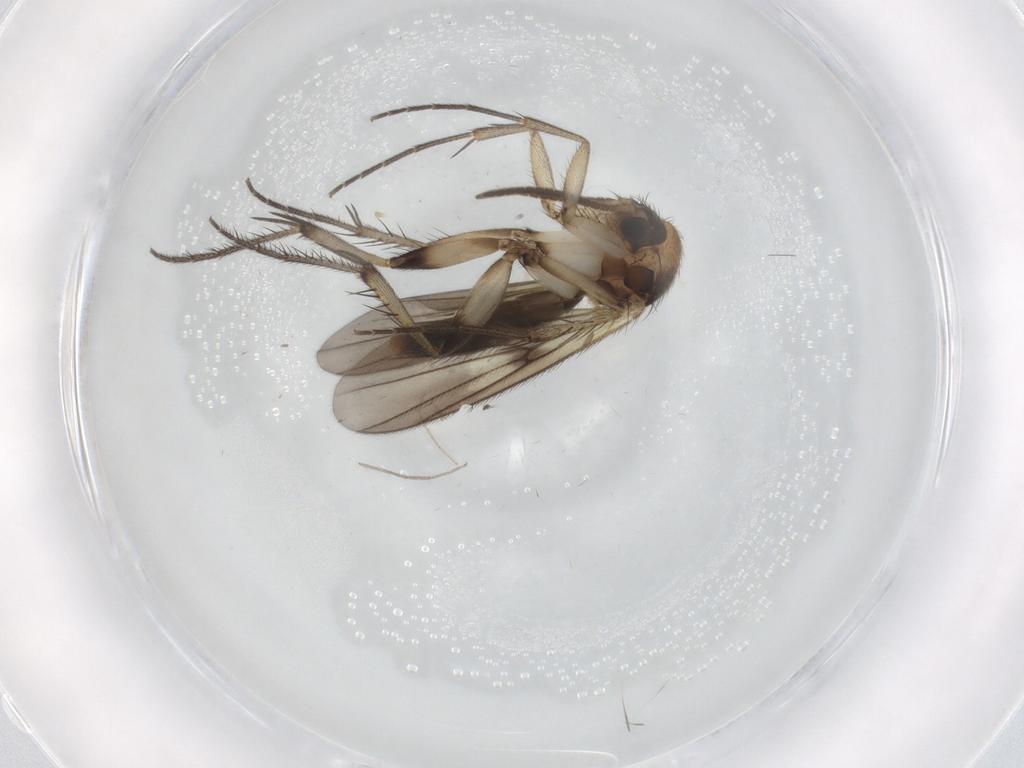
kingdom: Animalia
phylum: Arthropoda
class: Insecta
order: Diptera
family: Mycetophilidae
